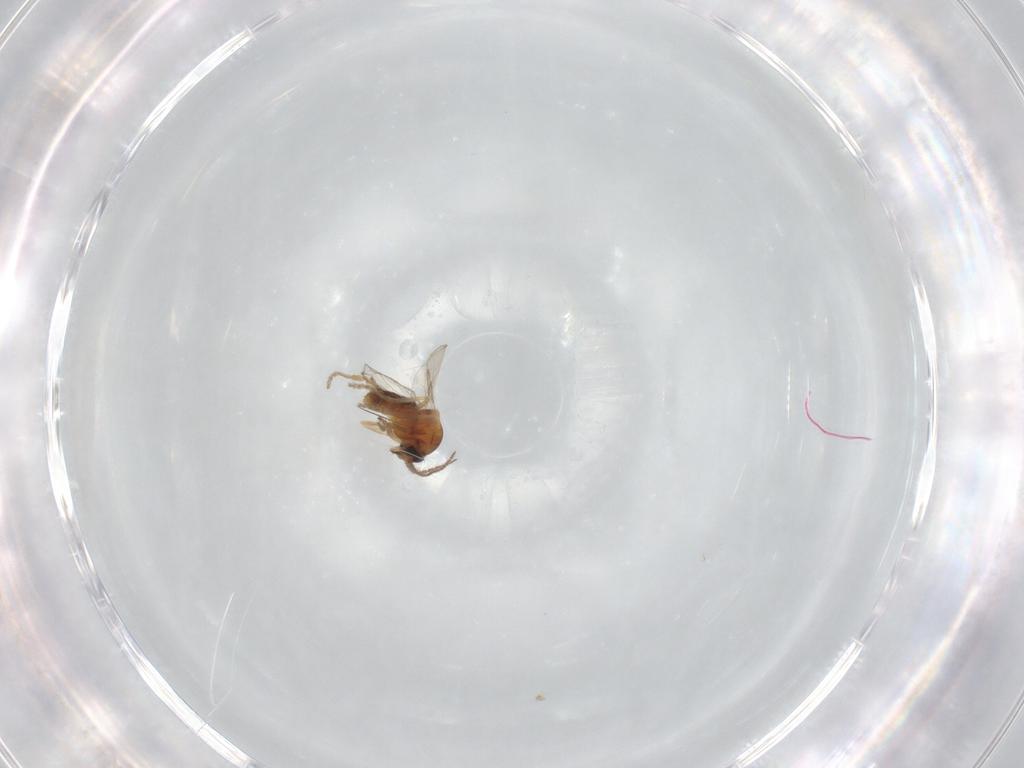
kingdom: Animalia
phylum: Arthropoda
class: Insecta
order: Diptera
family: Ceratopogonidae
